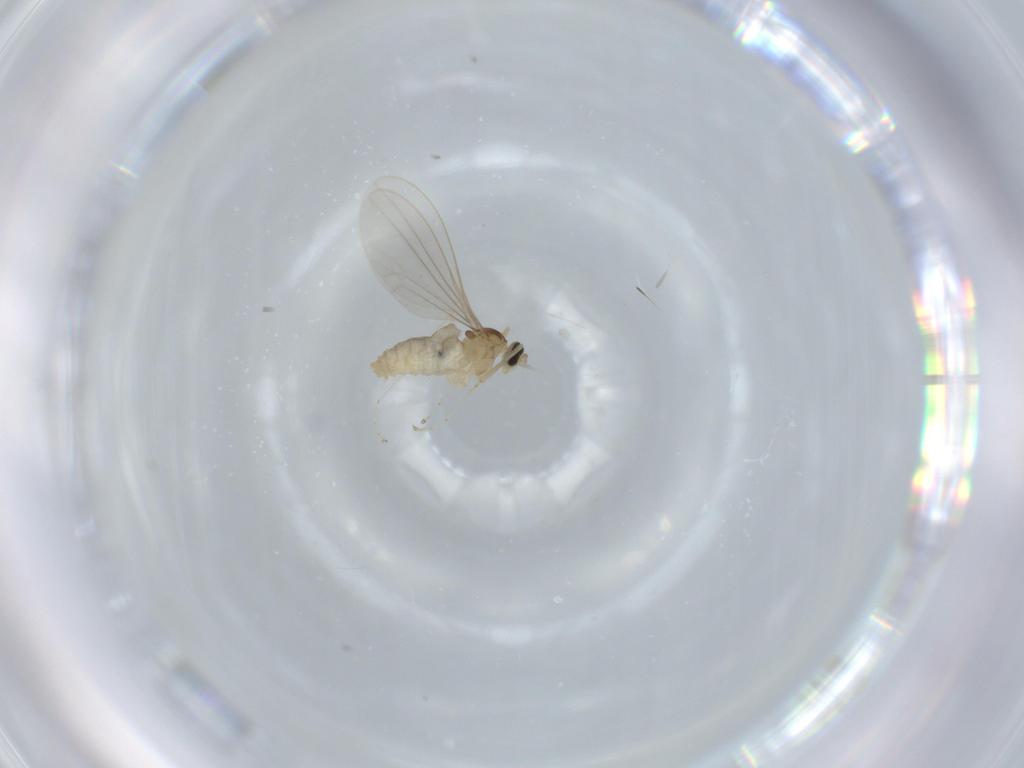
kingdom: Animalia
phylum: Arthropoda
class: Insecta
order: Diptera
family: Cecidomyiidae
